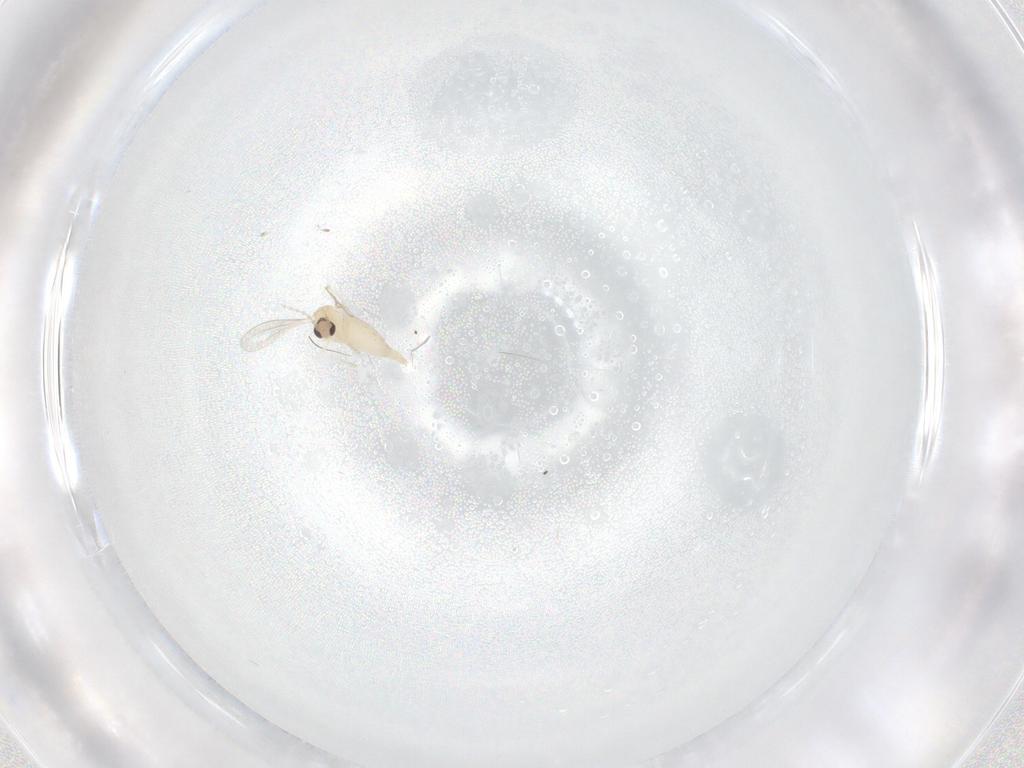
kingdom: Animalia
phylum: Arthropoda
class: Insecta
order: Diptera
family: Cecidomyiidae
